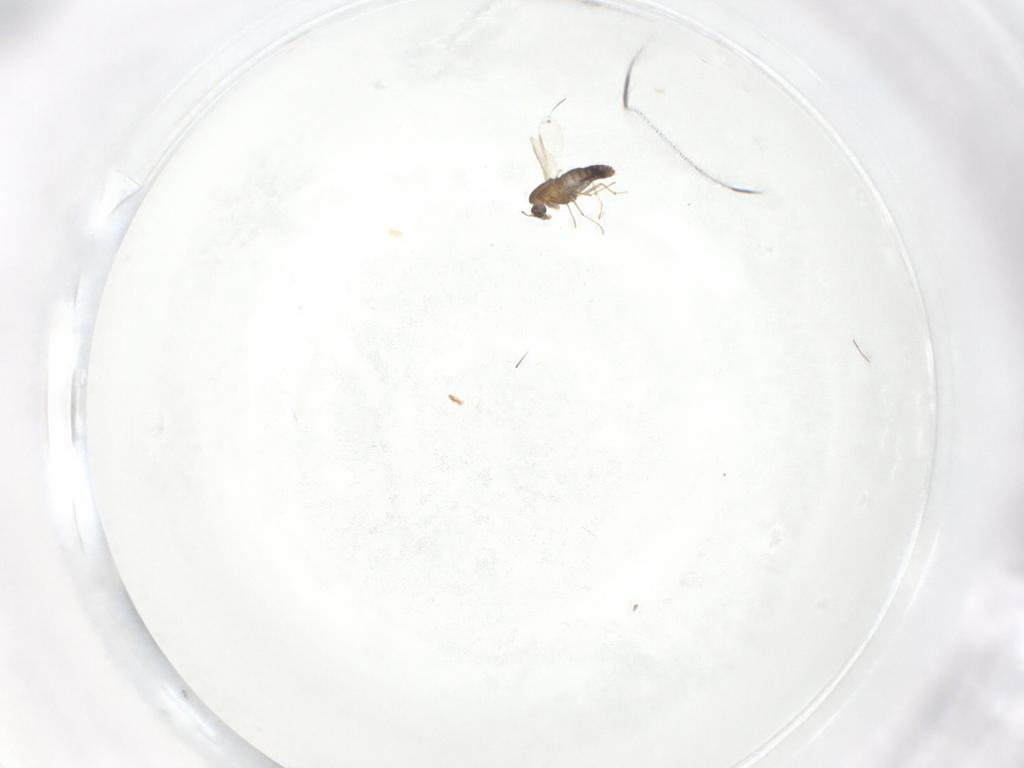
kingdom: Animalia
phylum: Arthropoda
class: Insecta
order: Diptera
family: Chironomidae
